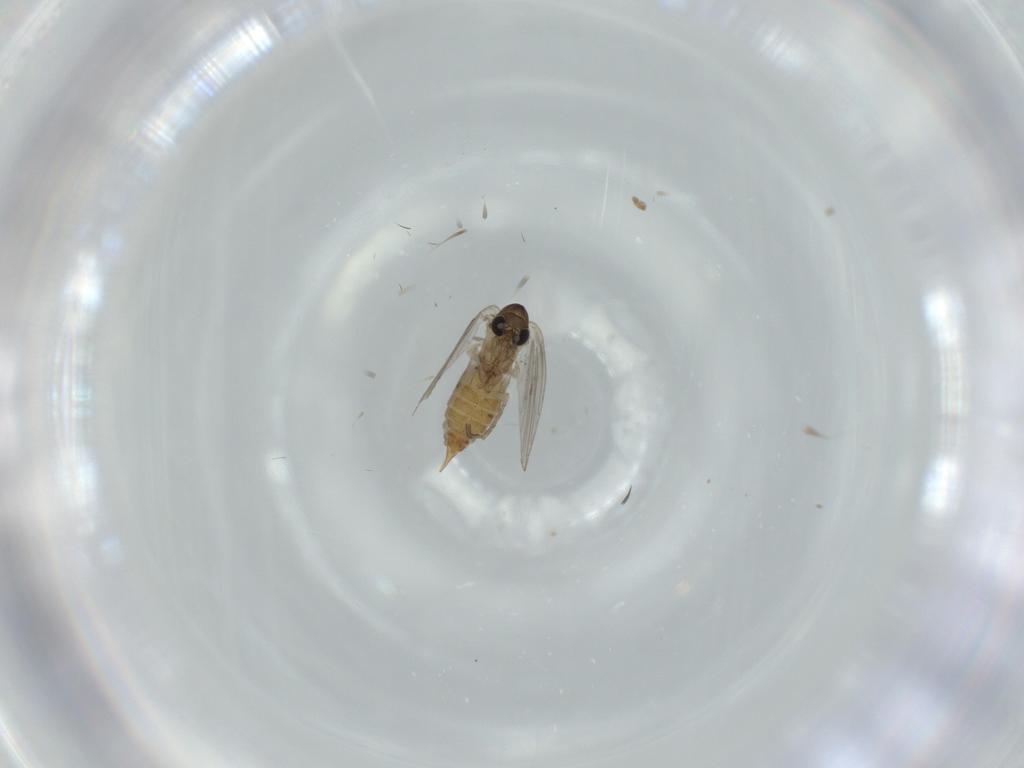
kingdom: Animalia
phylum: Arthropoda
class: Insecta
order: Diptera
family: Psychodidae
